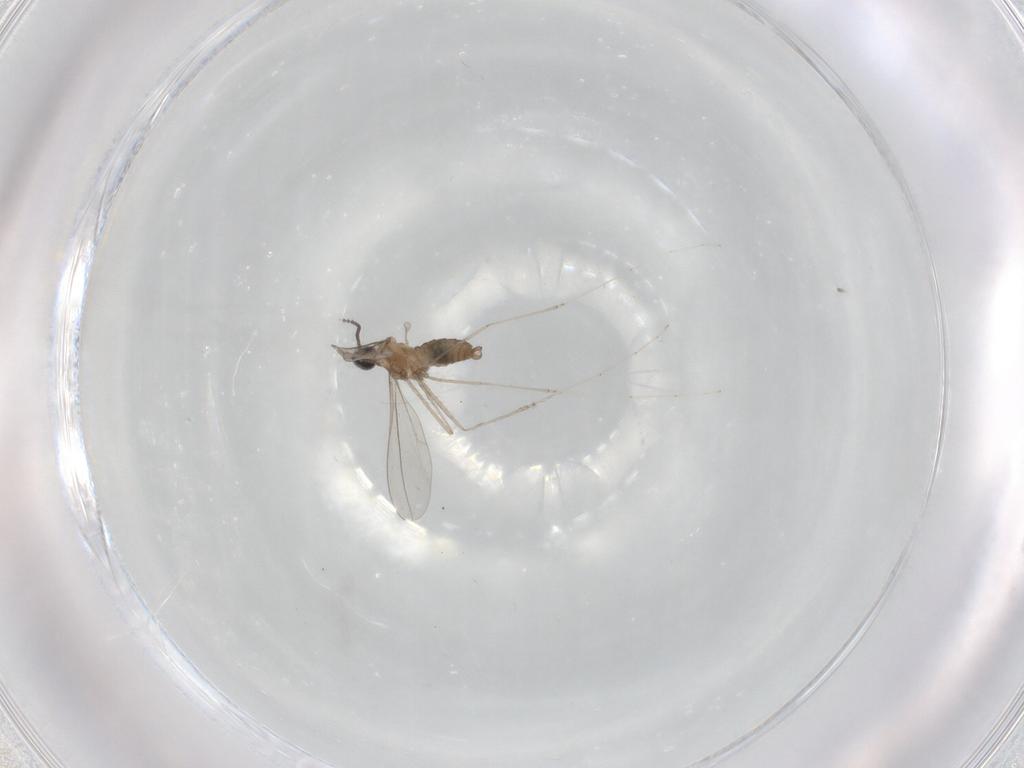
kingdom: Animalia
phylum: Arthropoda
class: Insecta
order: Diptera
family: Cecidomyiidae
